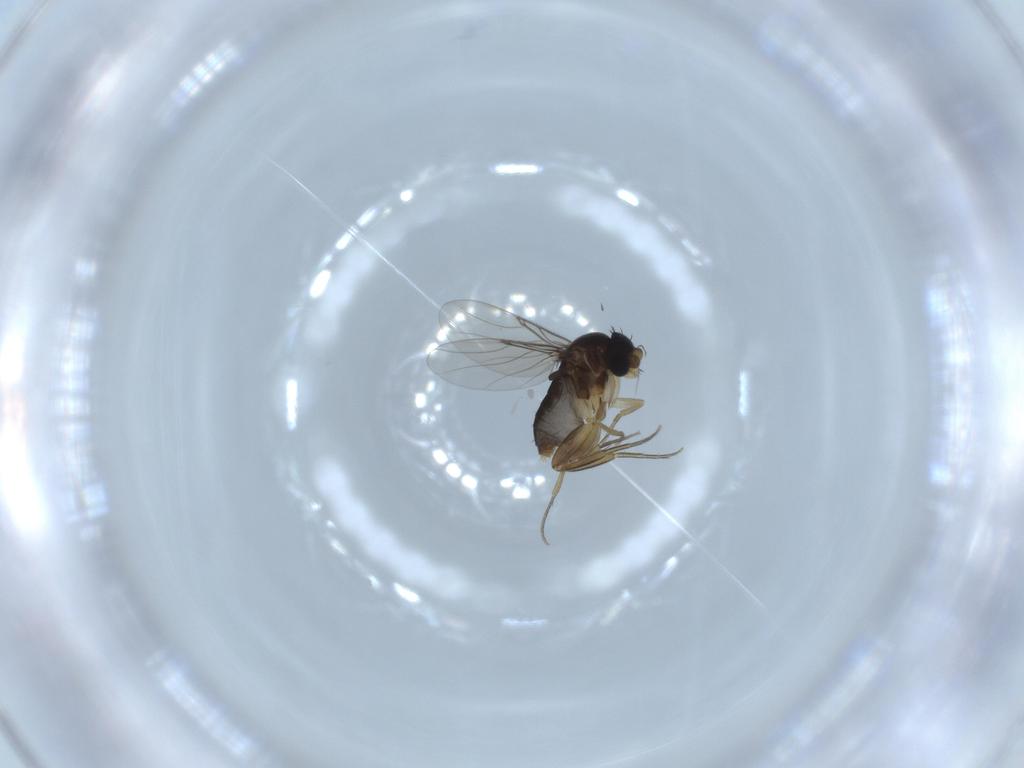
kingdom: Animalia
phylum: Arthropoda
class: Insecta
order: Diptera
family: Phoridae
